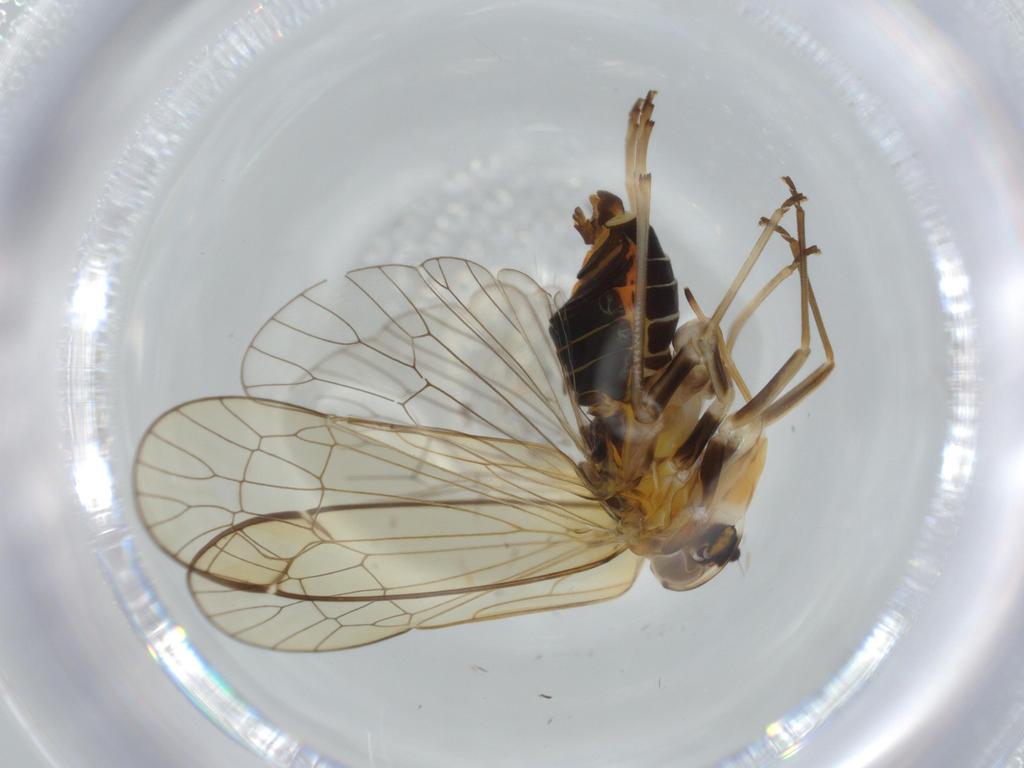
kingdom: Animalia
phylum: Arthropoda
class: Insecta
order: Hemiptera
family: Kinnaridae
